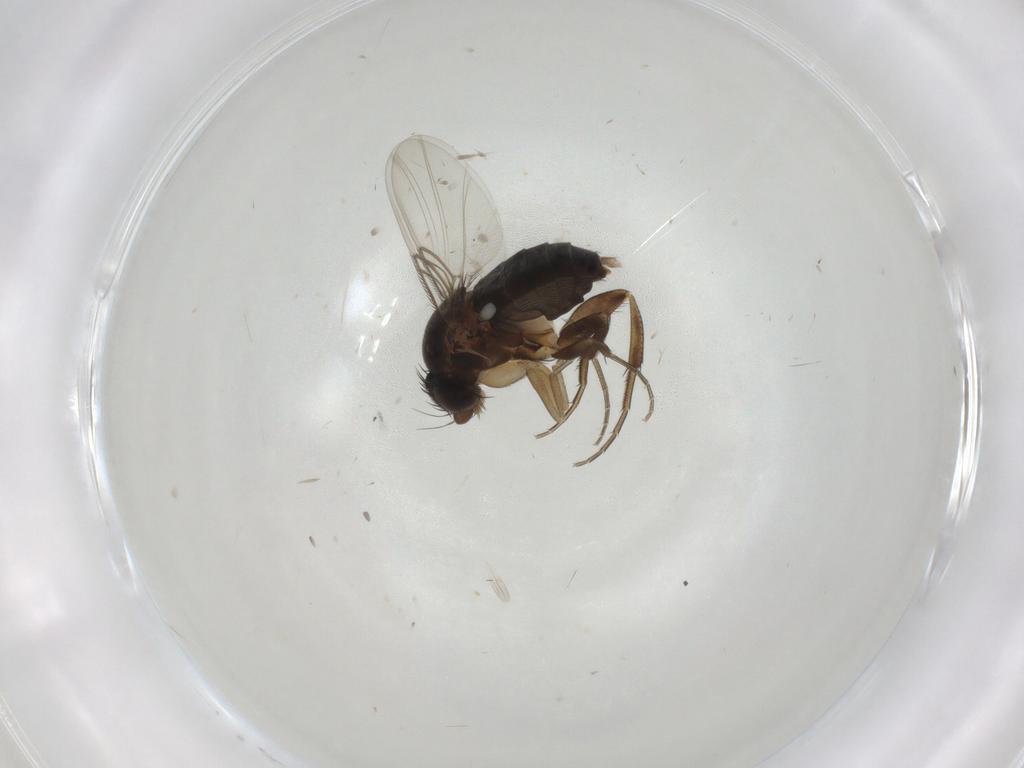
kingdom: Animalia
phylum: Arthropoda
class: Insecta
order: Diptera
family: Phoridae
